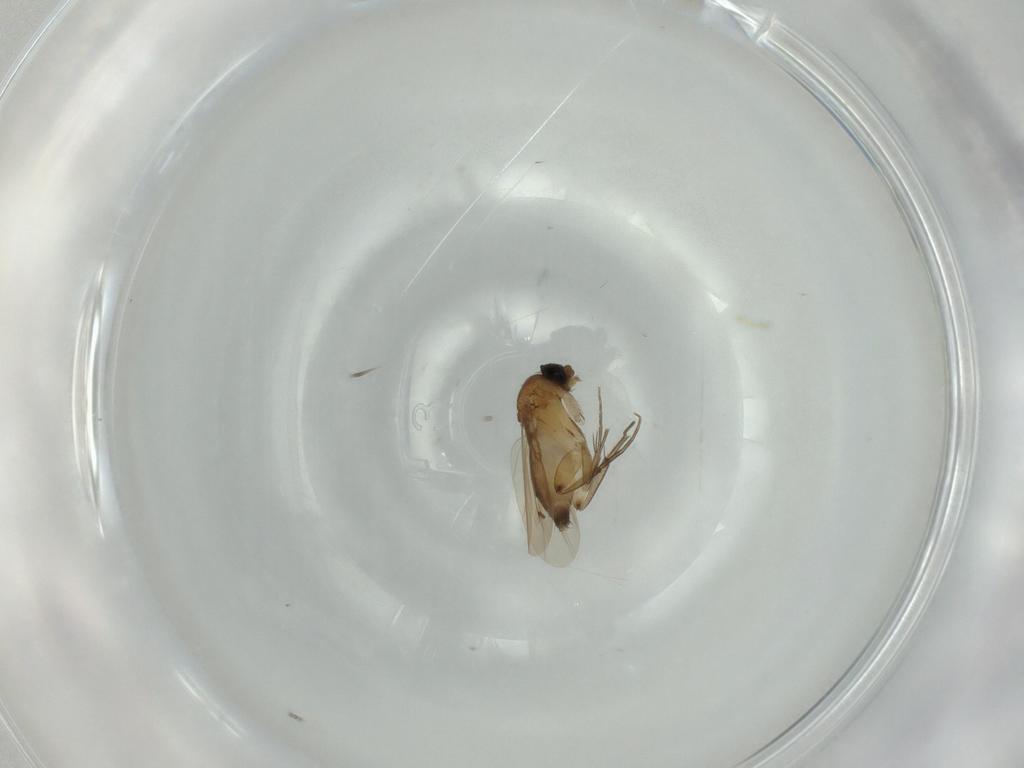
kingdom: Animalia
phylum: Arthropoda
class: Insecta
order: Diptera
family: Phoridae
